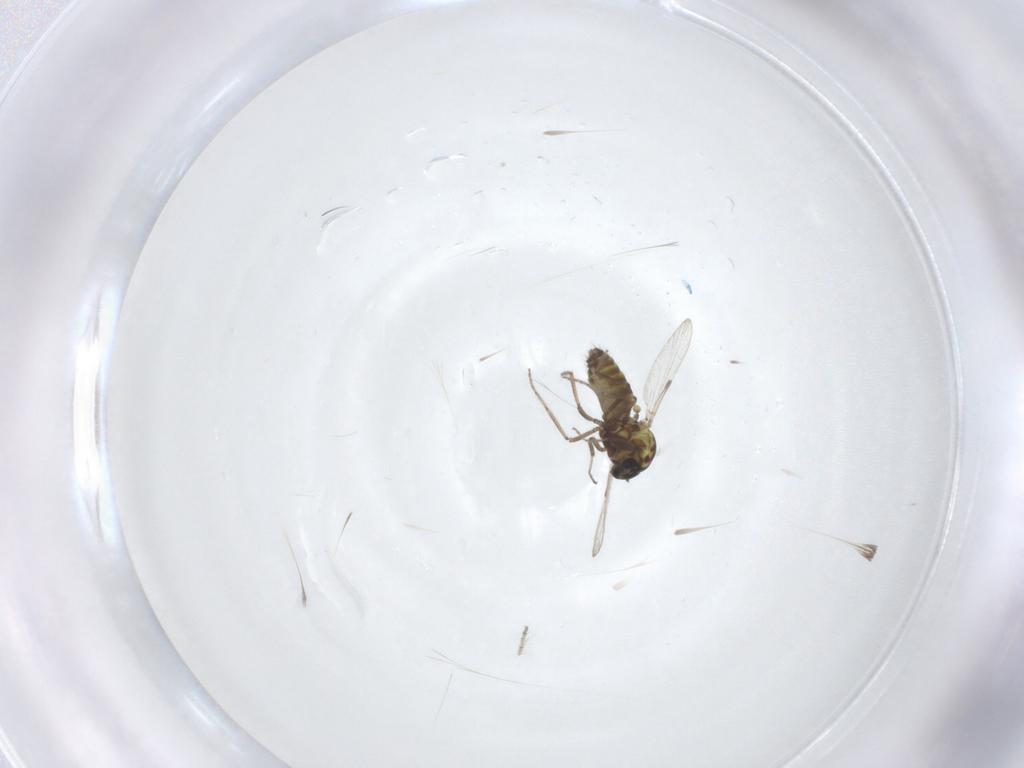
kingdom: Animalia
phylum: Arthropoda
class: Insecta
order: Diptera
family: Ceratopogonidae
